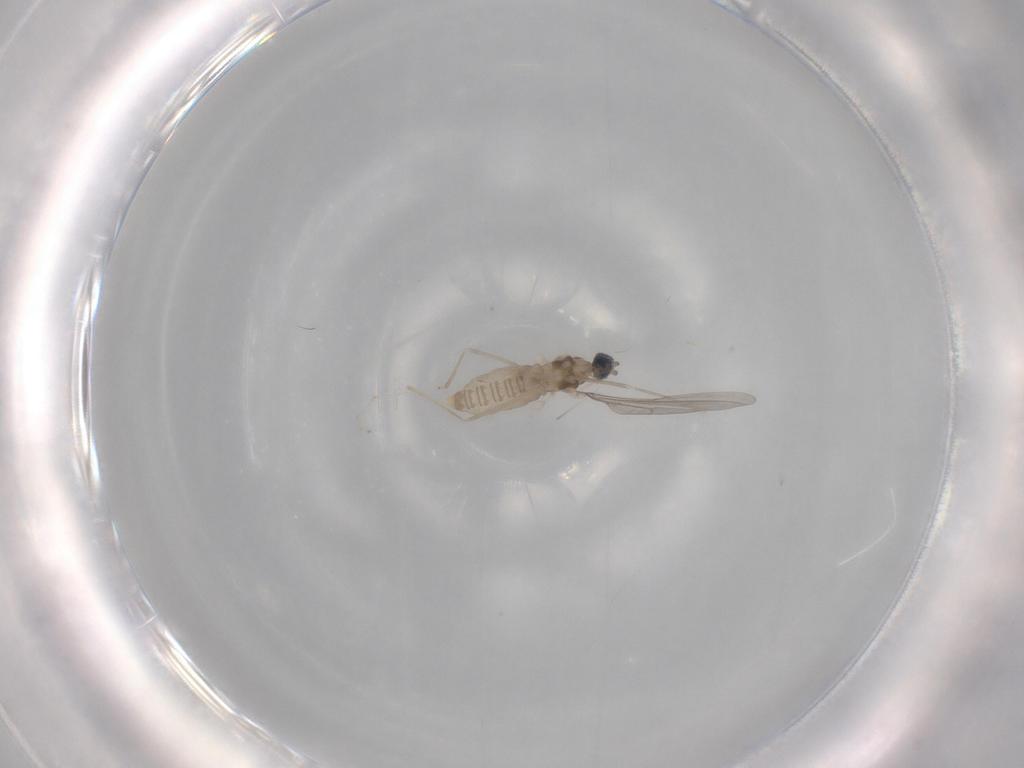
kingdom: Animalia
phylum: Arthropoda
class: Insecta
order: Diptera
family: Cecidomyiidae
